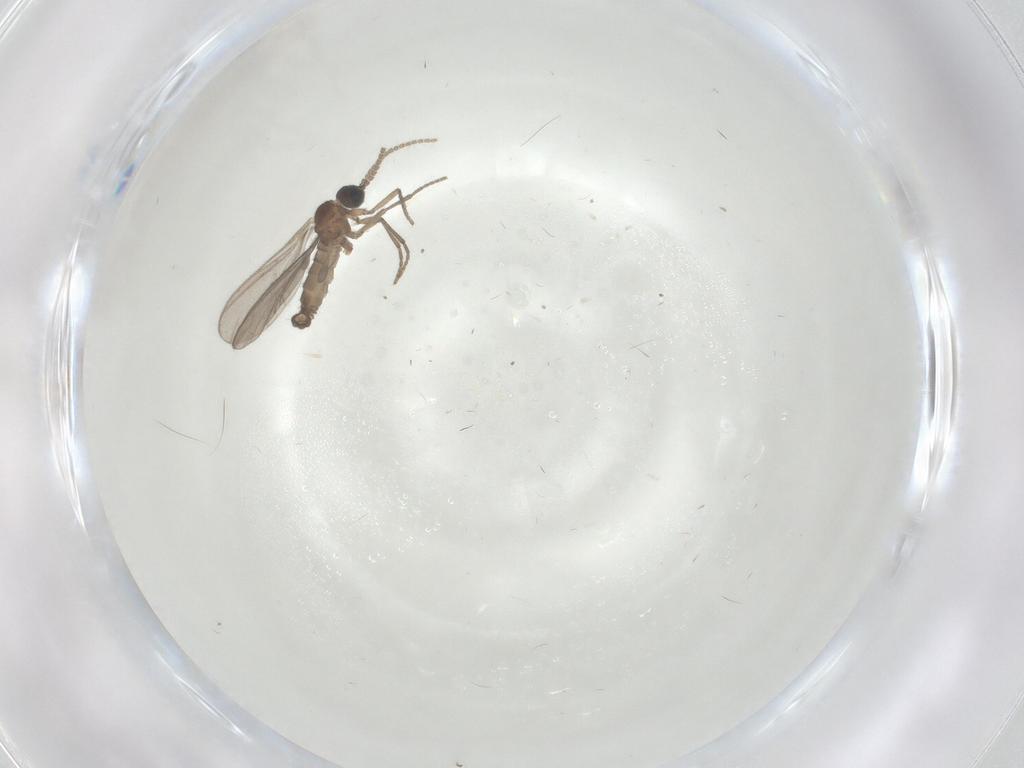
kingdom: Animalia
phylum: Arthropoda
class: Insecta
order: Diptera
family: Sciaridae
